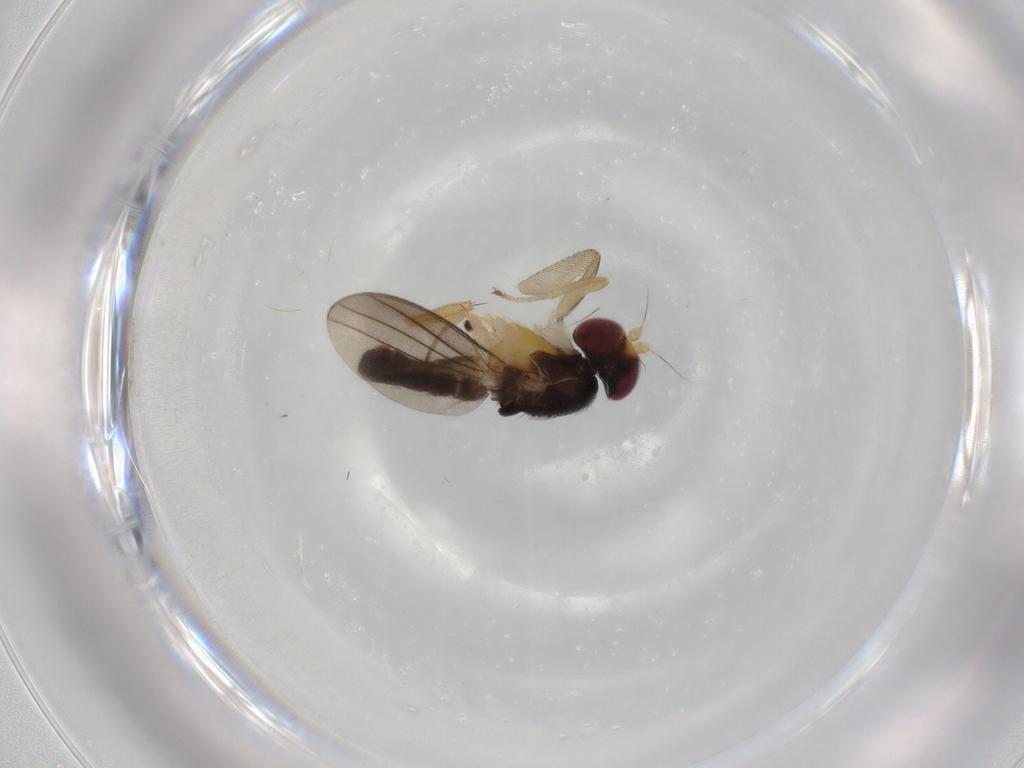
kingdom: Animalia
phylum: Arthropoda
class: Insecta
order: Diptera
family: Clusiidae
